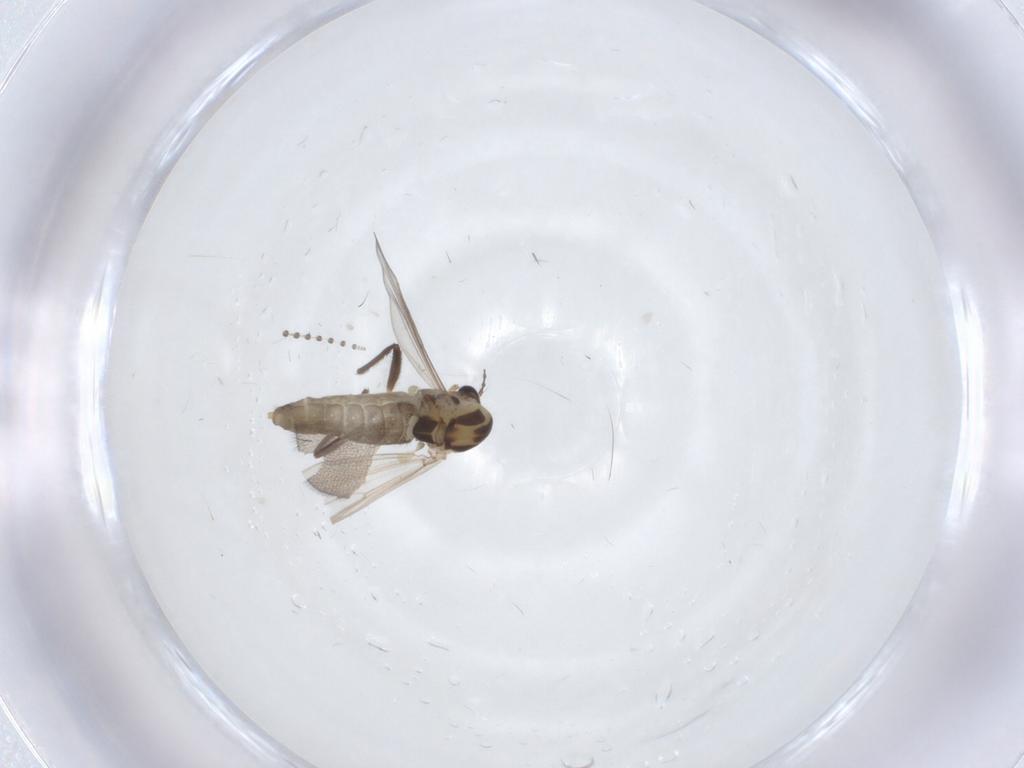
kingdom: Animalia
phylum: Arthropoda
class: Insecta
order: Diptera
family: Chironomidae
